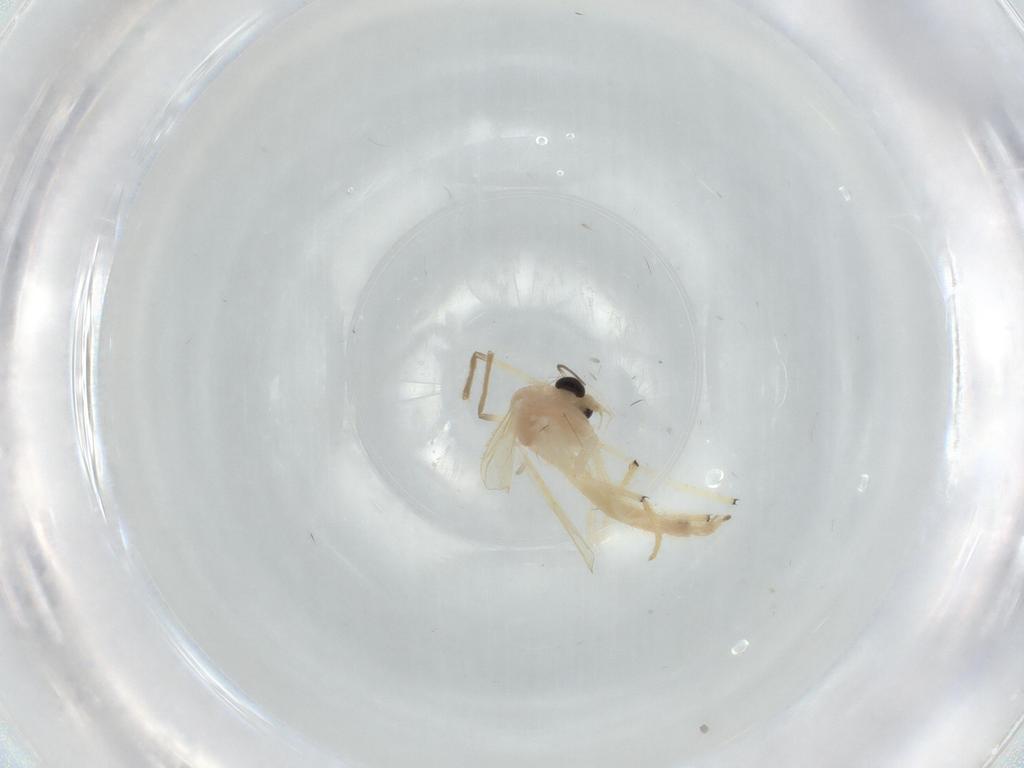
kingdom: Animalia
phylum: Arthropoda
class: Insecta
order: Diptera
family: Chironomidae
